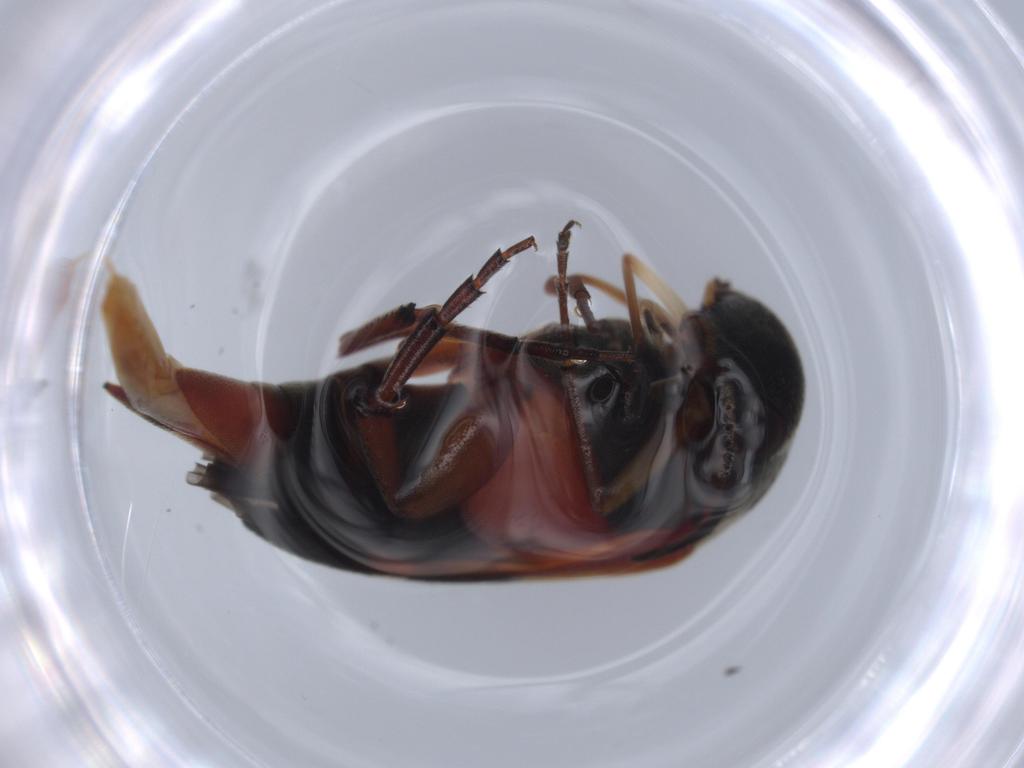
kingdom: Animalia
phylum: Arthropoda
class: Insecta
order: Coleoptera
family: Mordellidae
